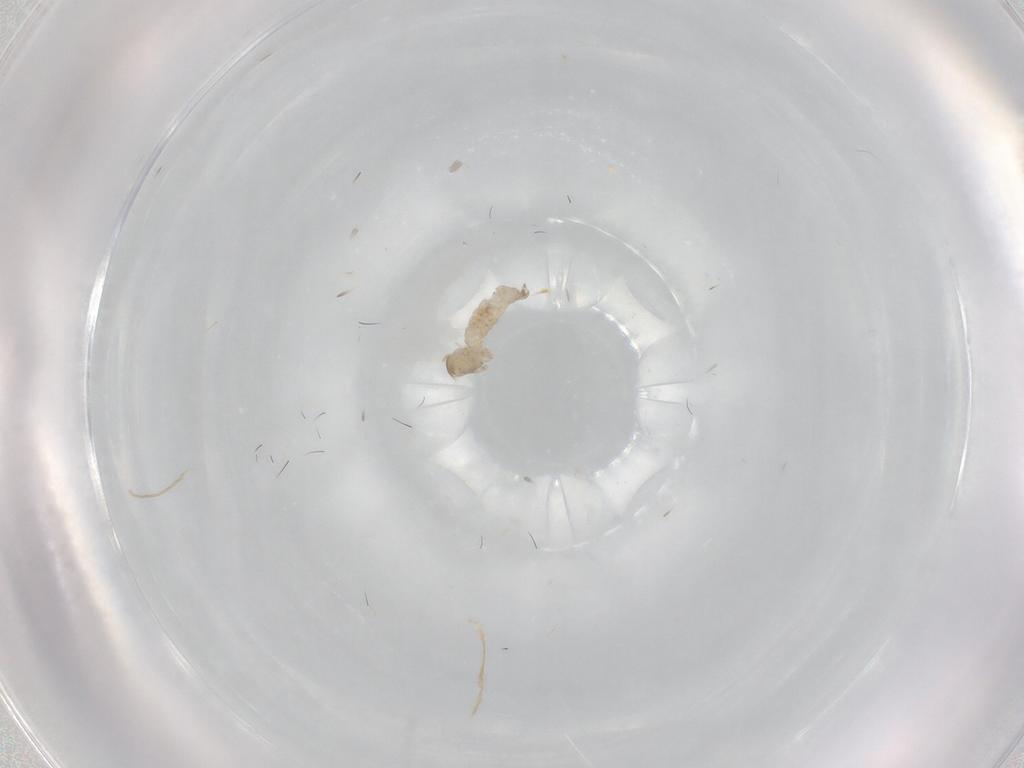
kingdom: Animalia
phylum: Arthropoda
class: Insecta
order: Diptera
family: Cecidomyiidae
